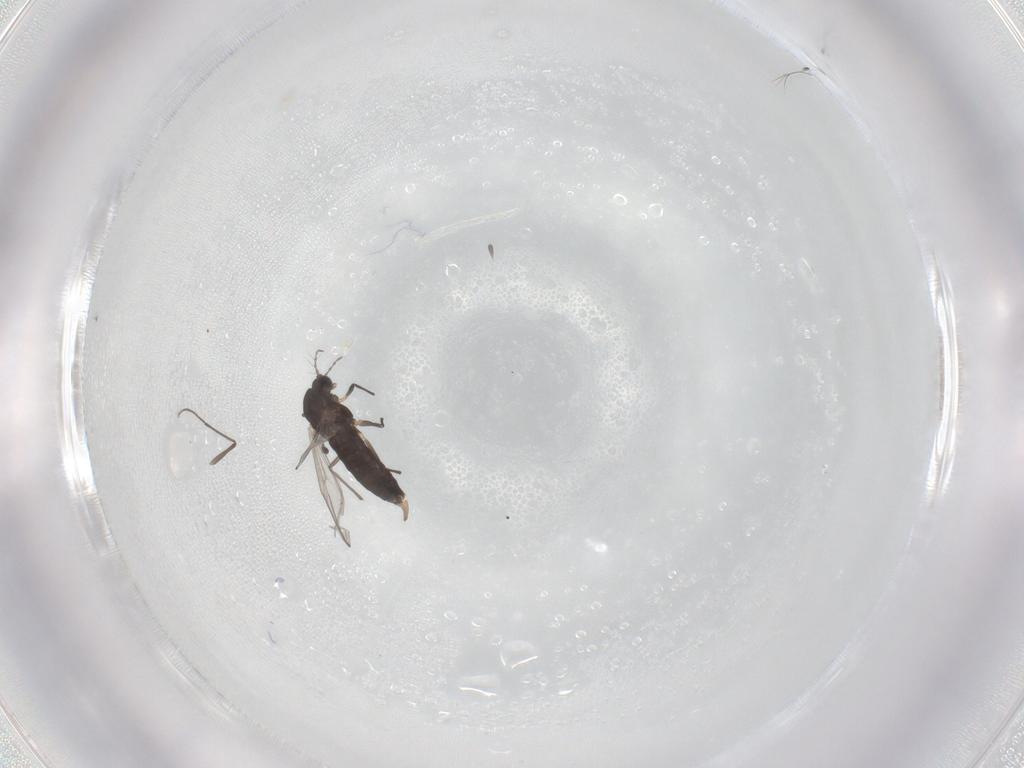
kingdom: Animalia
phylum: Arthropoda
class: Insecta
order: Diptera
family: Chironomidae
